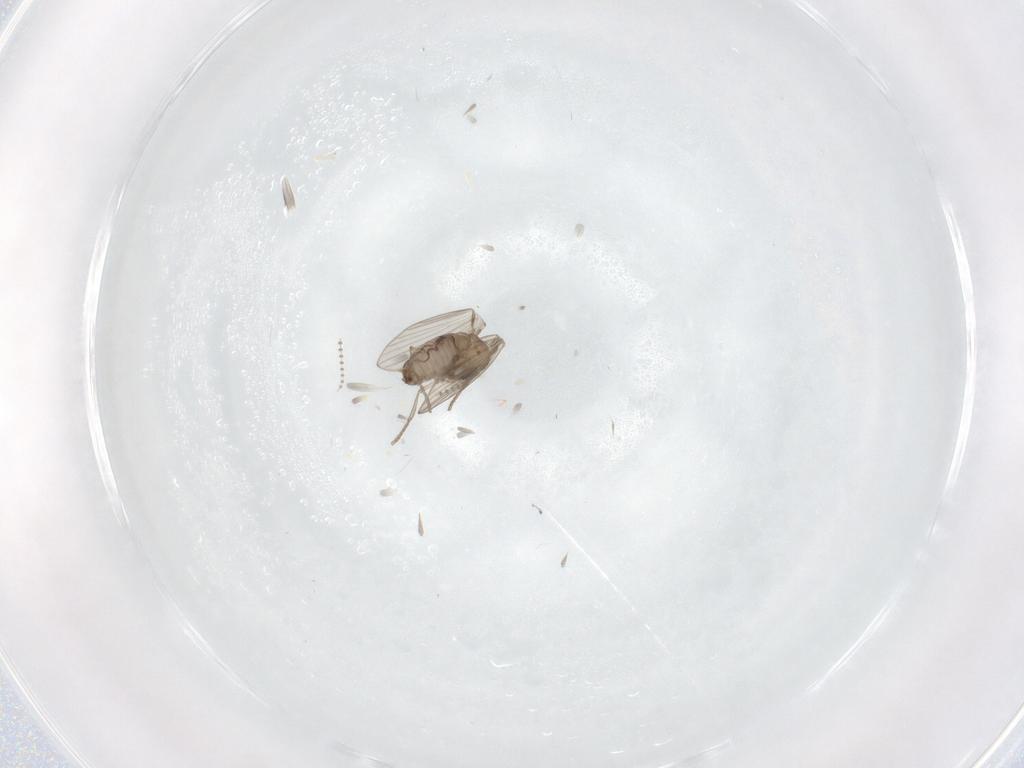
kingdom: Animalia
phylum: Arthropoda
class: Insecta
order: Diptera
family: Psychodidae
